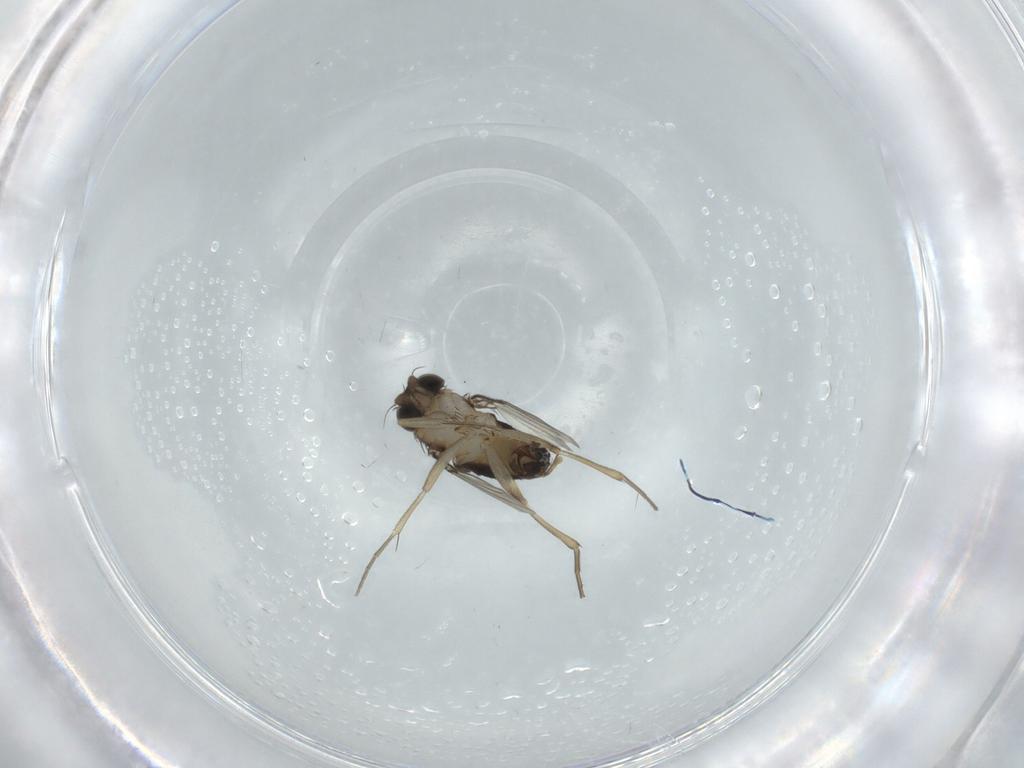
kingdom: Animalia
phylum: Arthropoda
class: Insecta
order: Diptera
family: Phoridae
